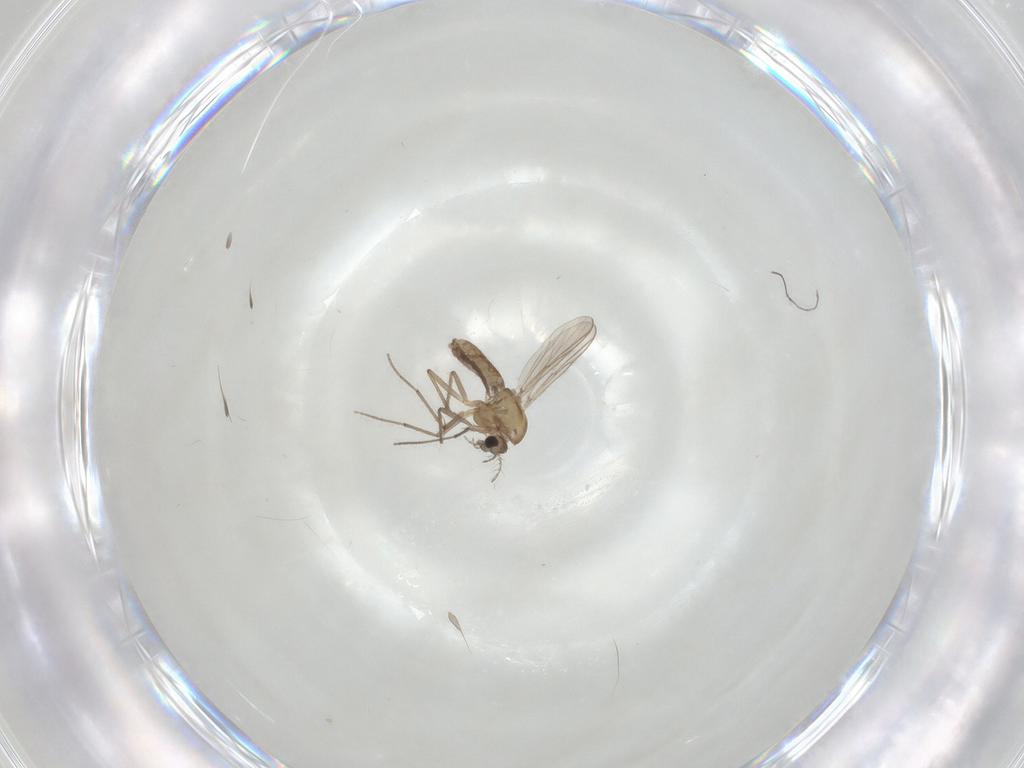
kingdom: Animalia
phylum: Arthropoda
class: Insecta
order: Diptera
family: Chironomidae
